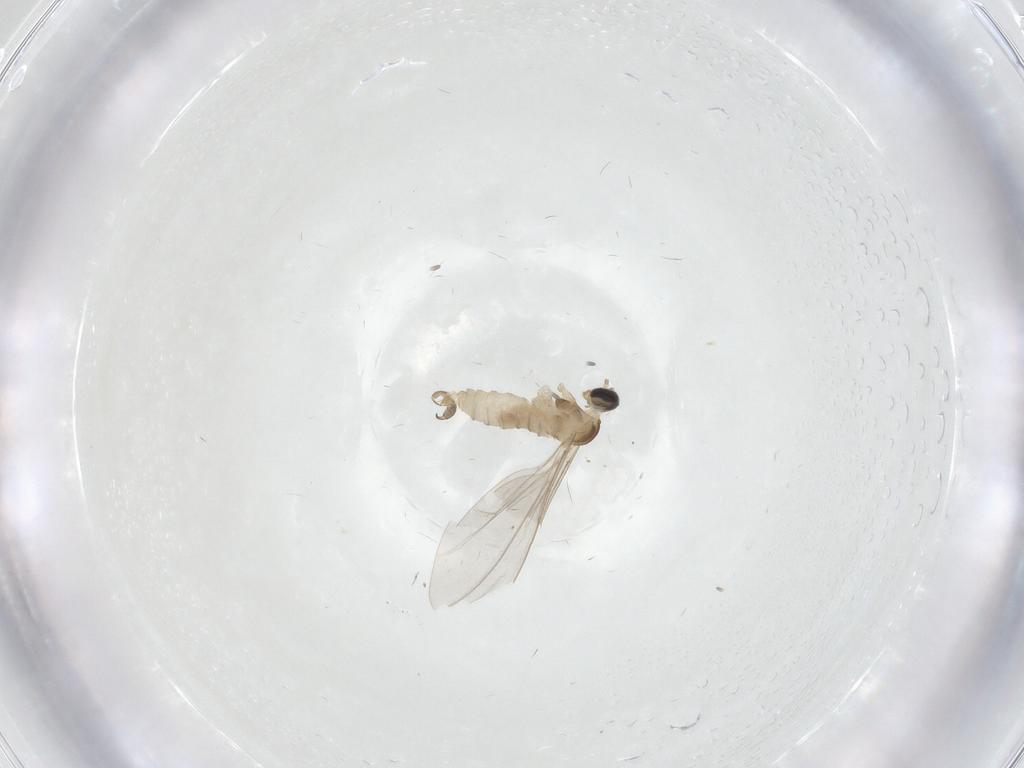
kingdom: Animalia
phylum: Arthropoda
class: Insecta
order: Diptera
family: Cecidomyiidae
